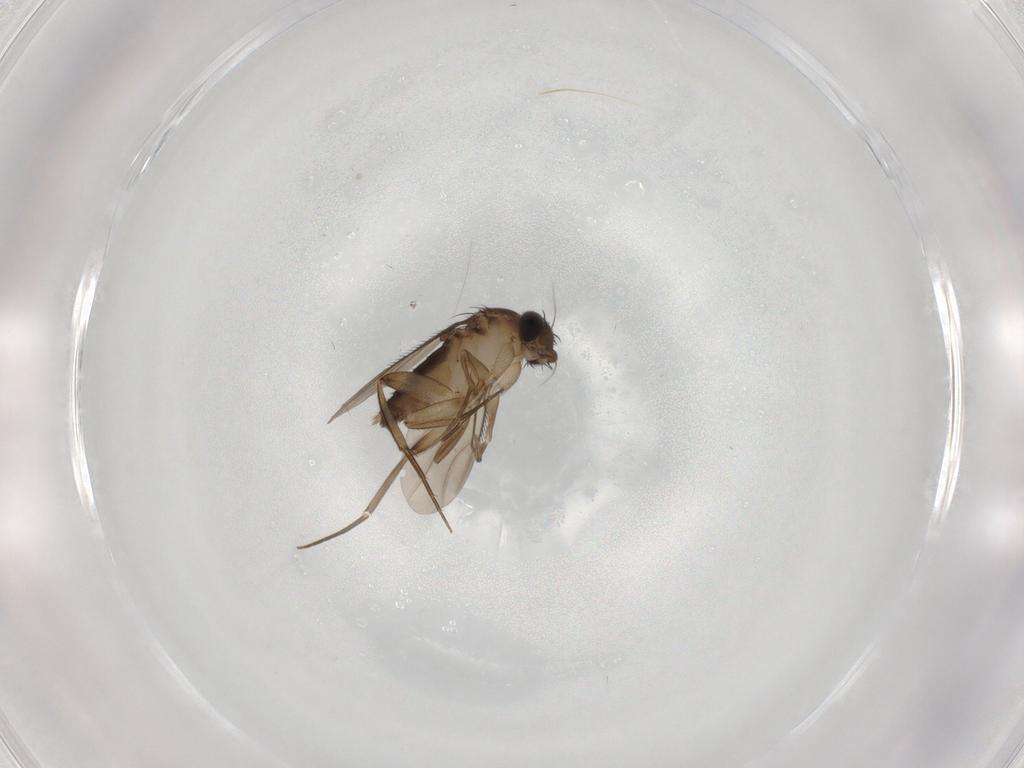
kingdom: Animalia
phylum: Arthropoda
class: Insecta
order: Diptera
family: Phoridae
